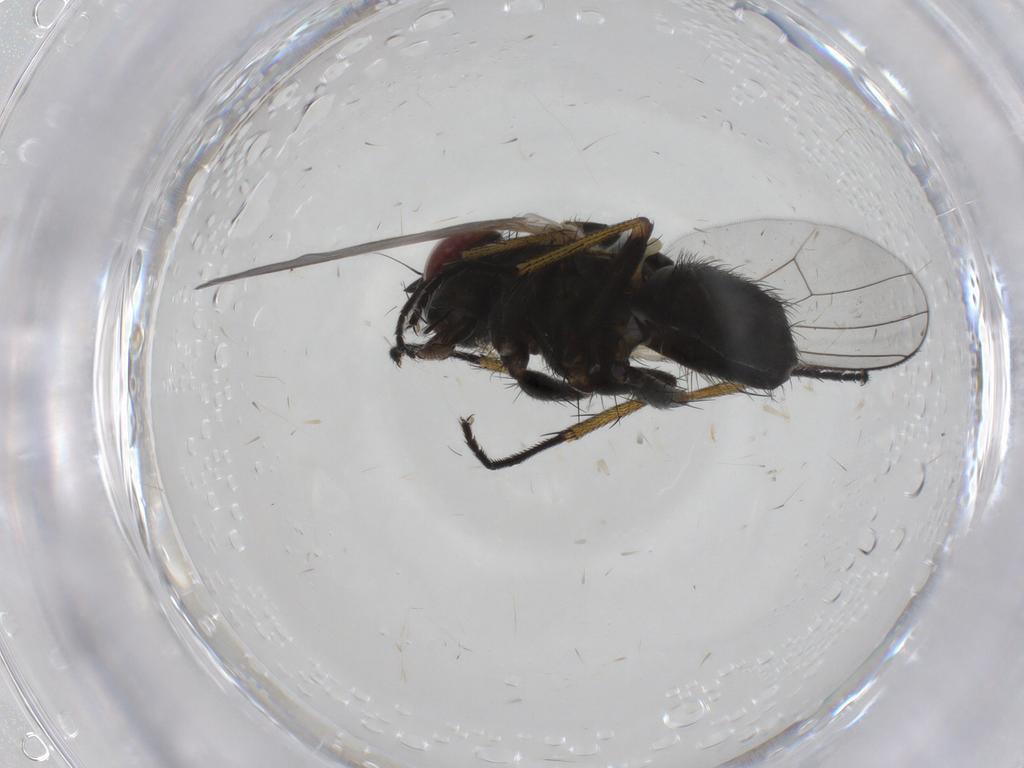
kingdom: Animalia
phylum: Arthropoda
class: Insecta
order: Diptera
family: Muscidae
